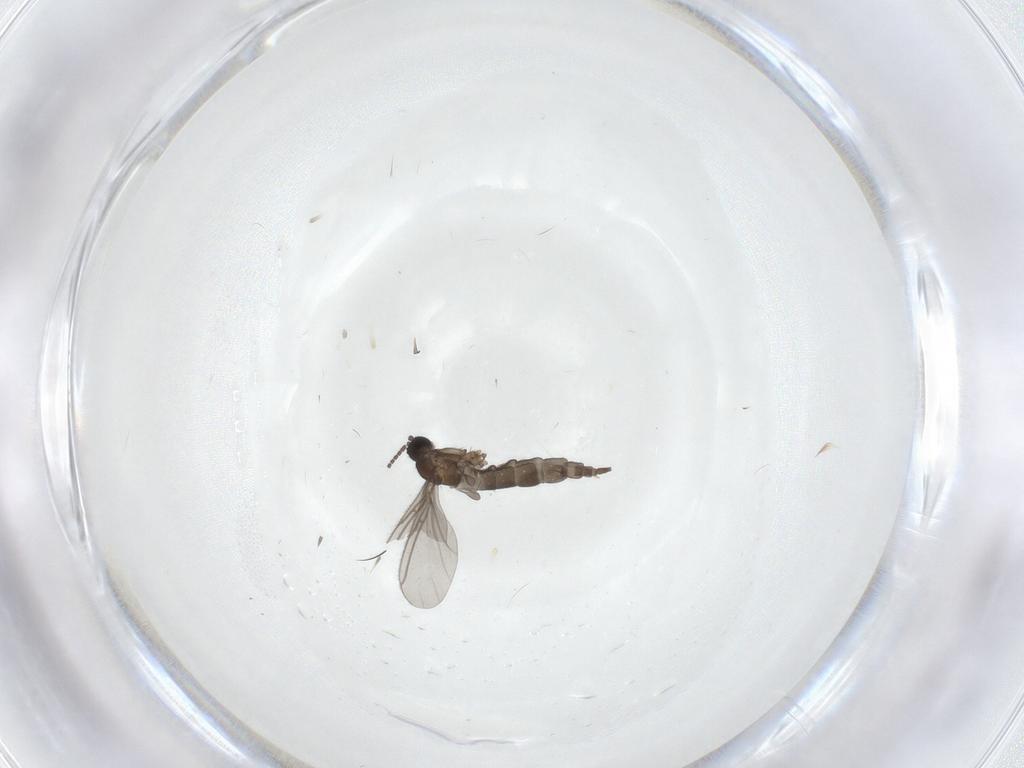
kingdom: Animalia
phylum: Arthropoda
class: Insecta
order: Diptera
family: Sciaridae
